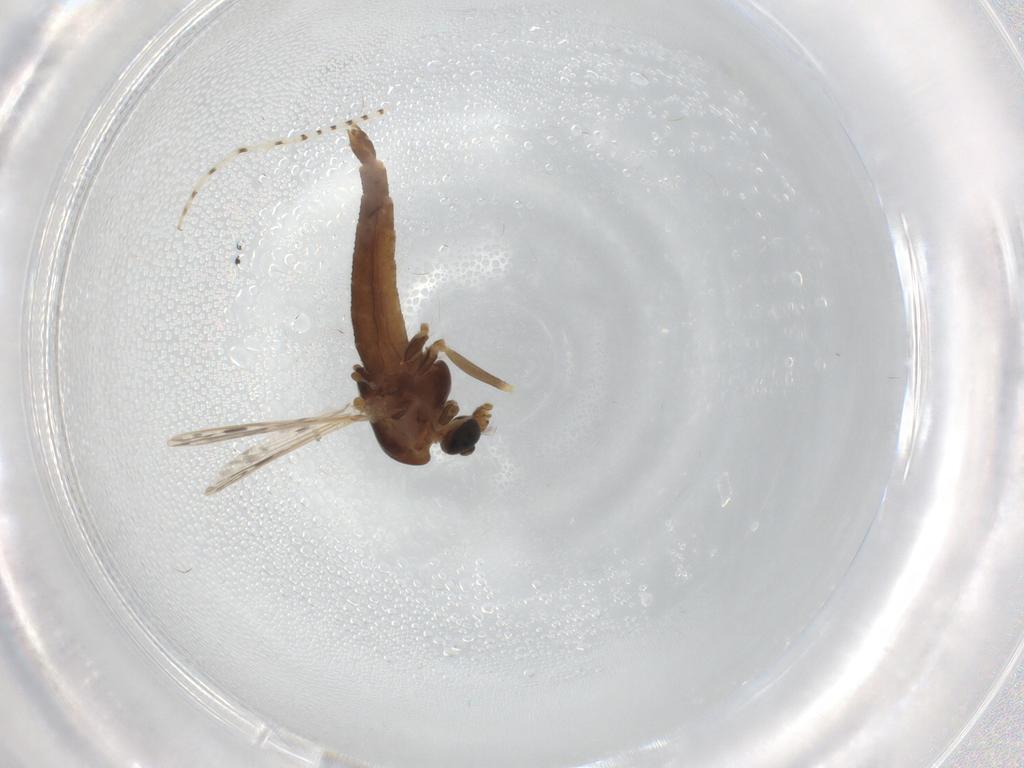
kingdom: Animalia
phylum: Arthropoda
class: Insecta
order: Diptera
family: Chironomidae
